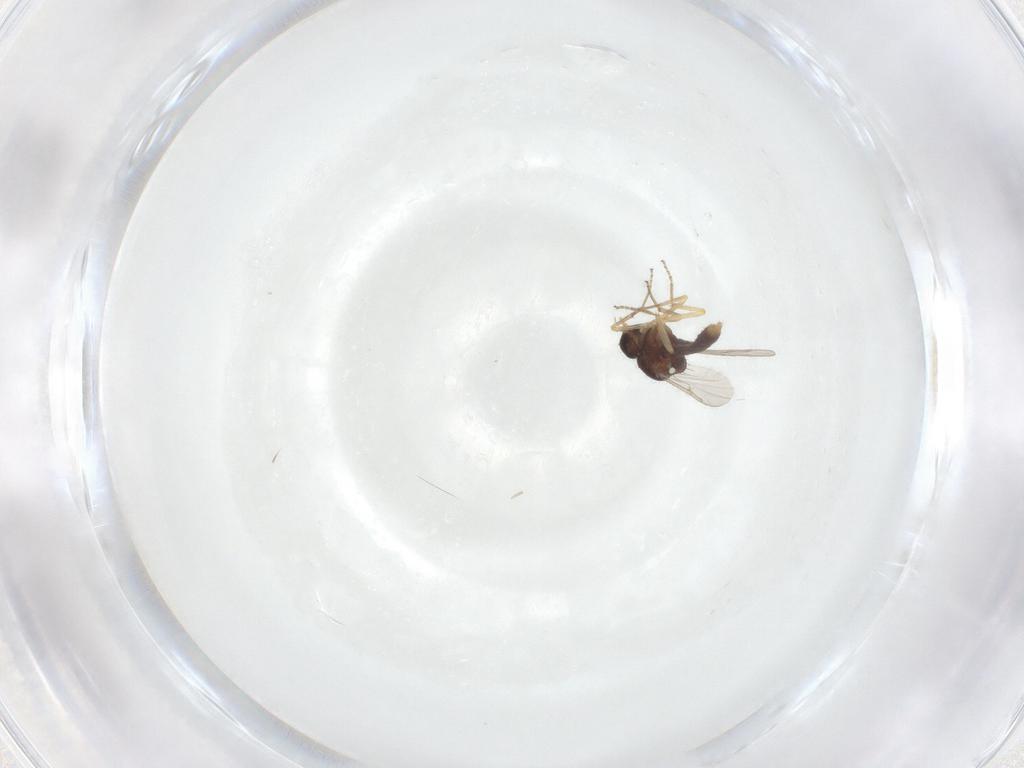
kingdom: Animalia
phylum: Arthropoda
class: Insecta
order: Diptera
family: Ceratopogonidae
